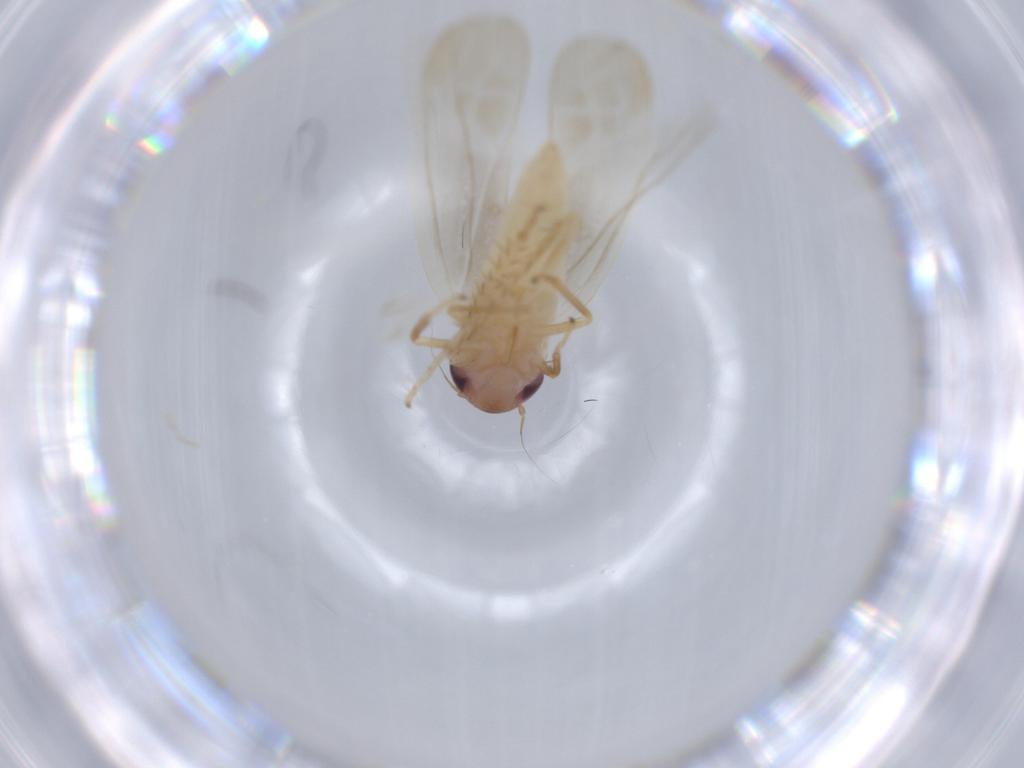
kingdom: Animalia
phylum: Arthropoda
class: Insecta
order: Hemiptera
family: Cicadellidae
